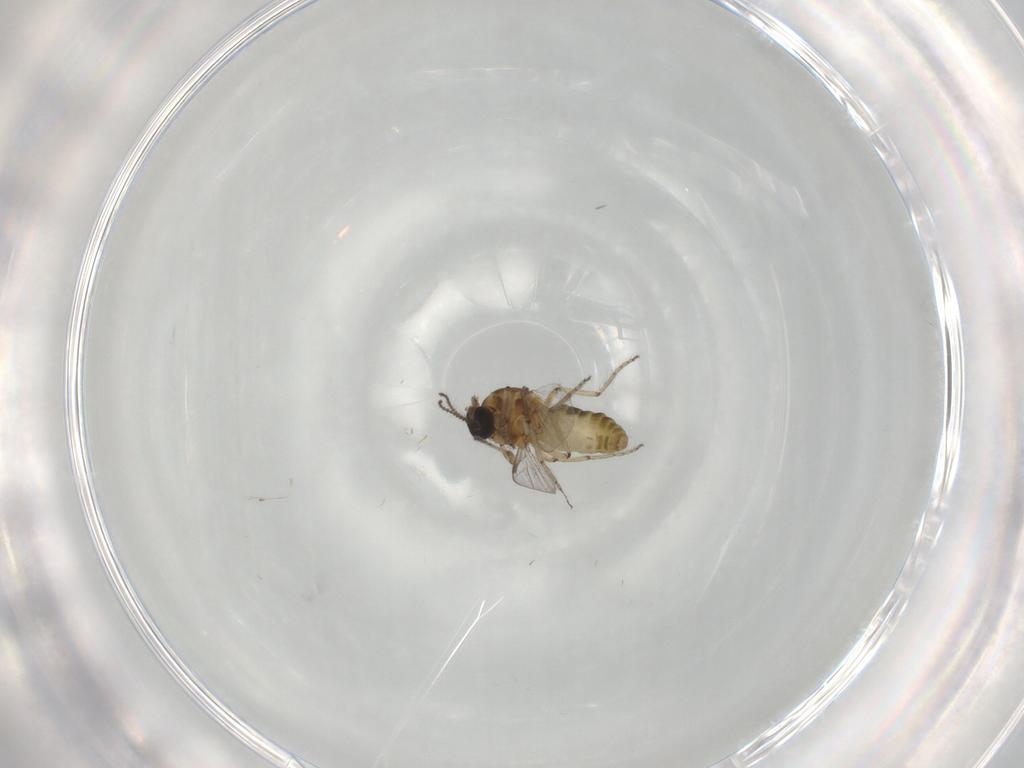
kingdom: Animalia
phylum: Arthropoda
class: Insecta
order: Diptera
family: Ceratopogonidae
